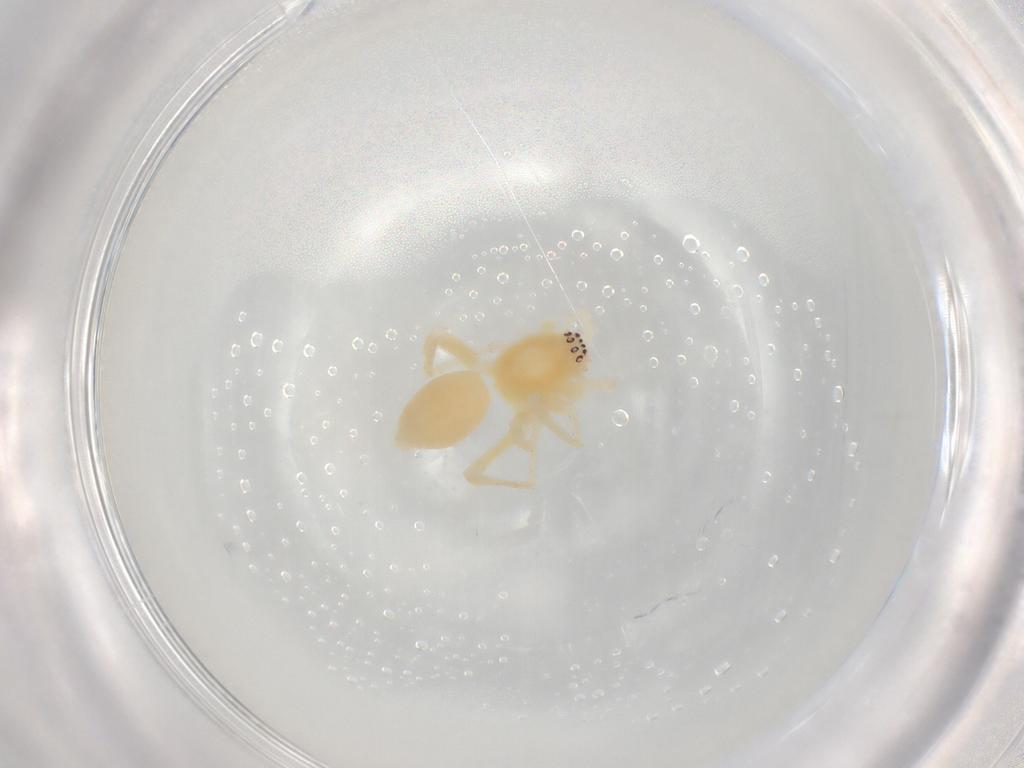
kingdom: Animalia
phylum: Arthropoda
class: Arachnida
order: Araneae
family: Anyphaenidae
